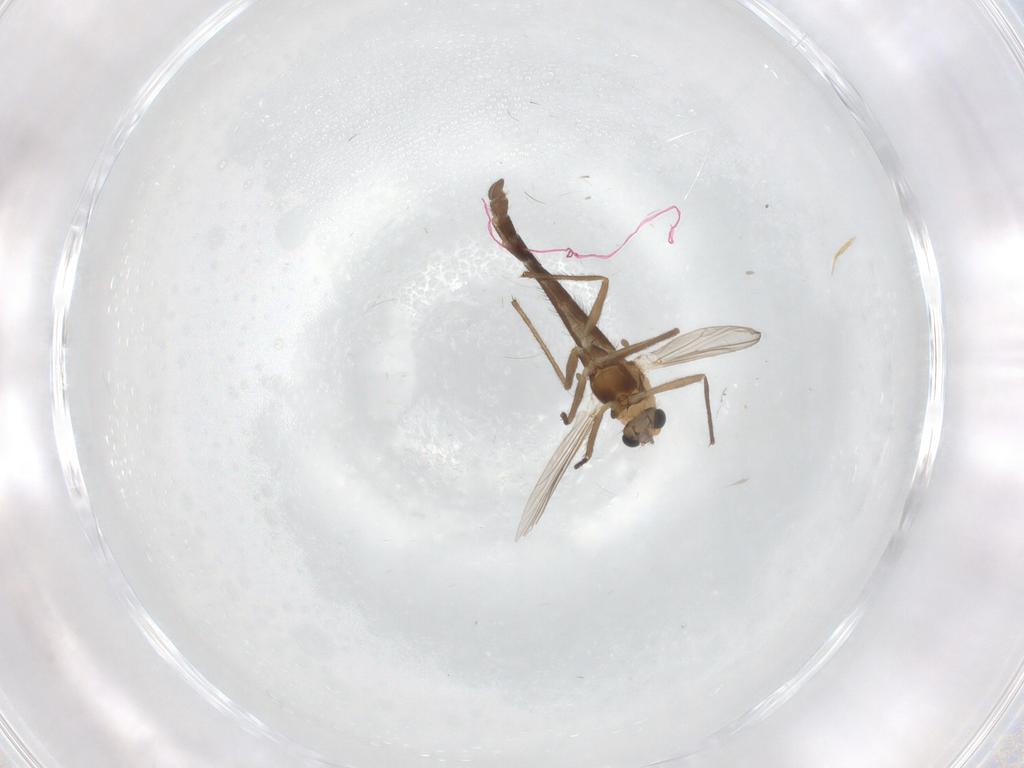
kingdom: Animalia
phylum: Arthropoda
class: Insecta
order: Diptera
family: Chironomidae
